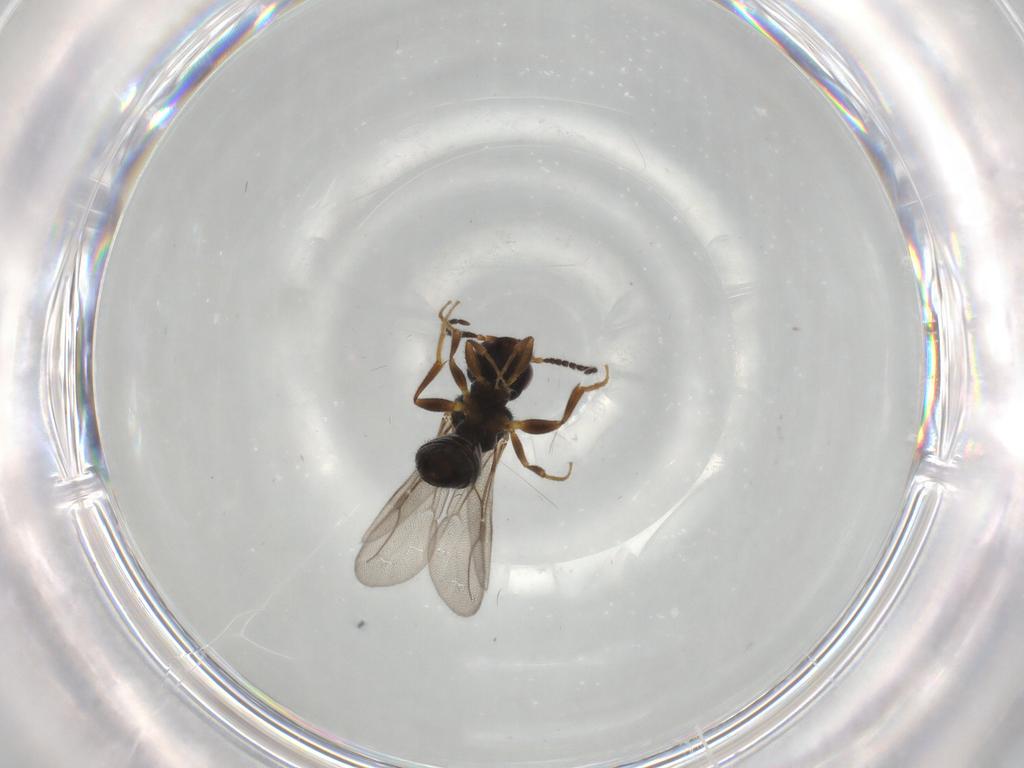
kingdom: Animalia
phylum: Arthropoda
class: Insecta
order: Hymenoptera
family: Bethylidae
